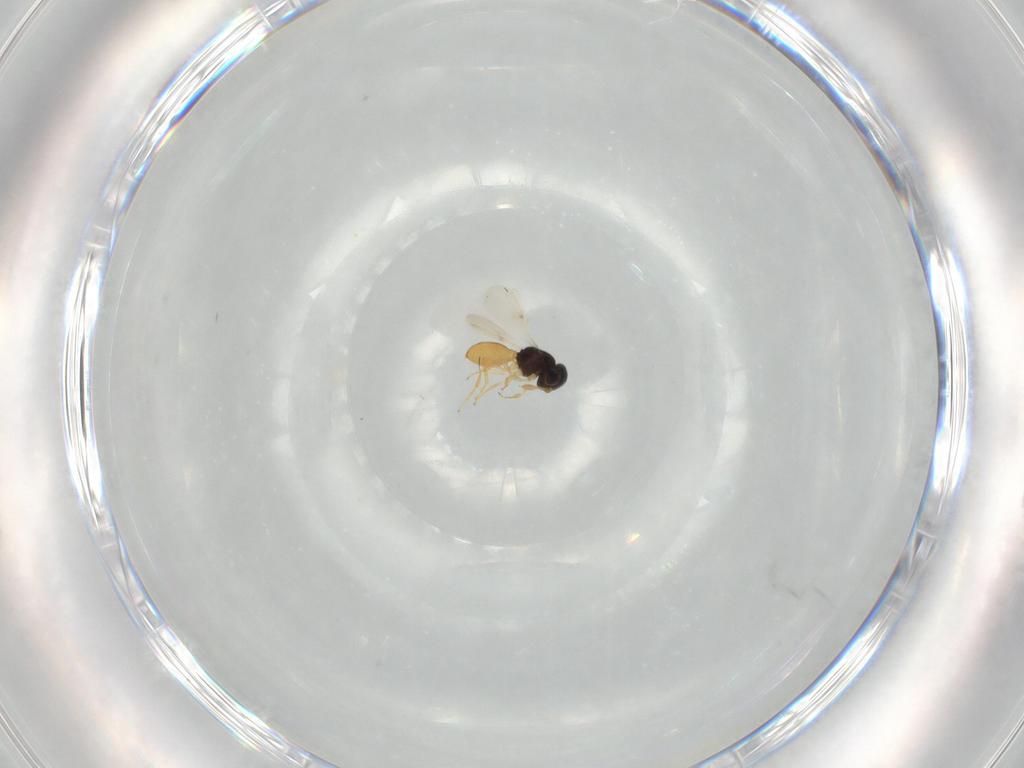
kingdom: Animalia
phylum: Arthropoda
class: Insecta
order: Hymenoptera
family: Scelionidae
